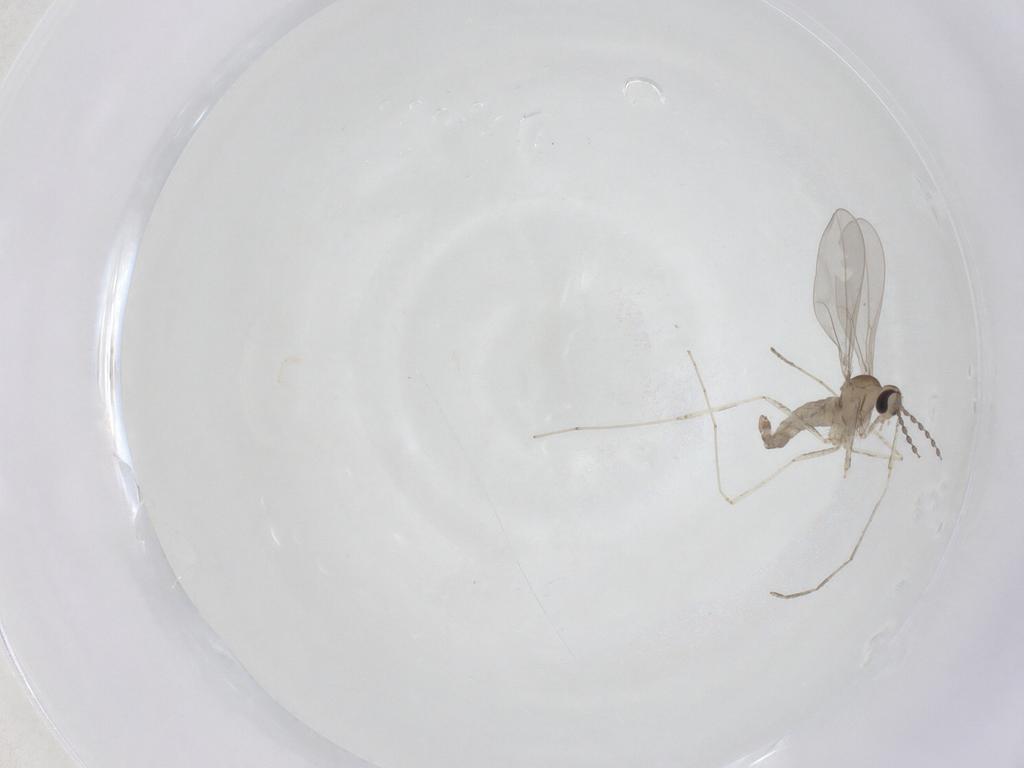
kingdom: Animalia
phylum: Arthropoda
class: Insecta
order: Diptera
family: Cecidomyiidae
